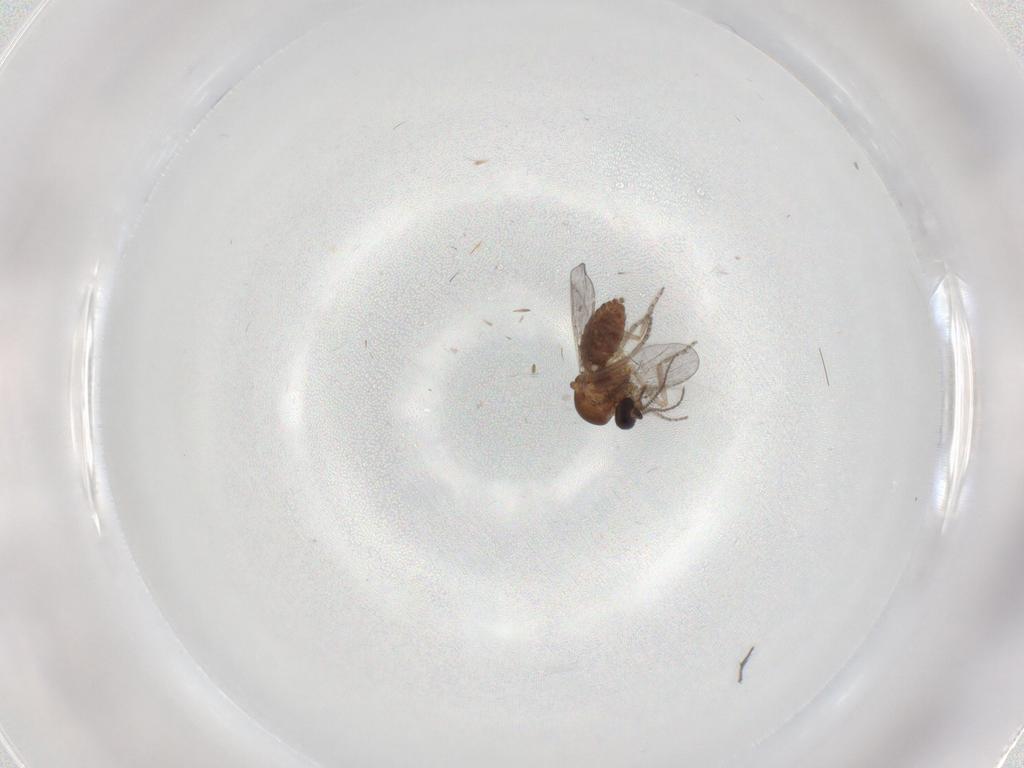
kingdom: Animalia
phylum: Arthropoda
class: Insecta
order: Diptera
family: Ceratopogonidae
